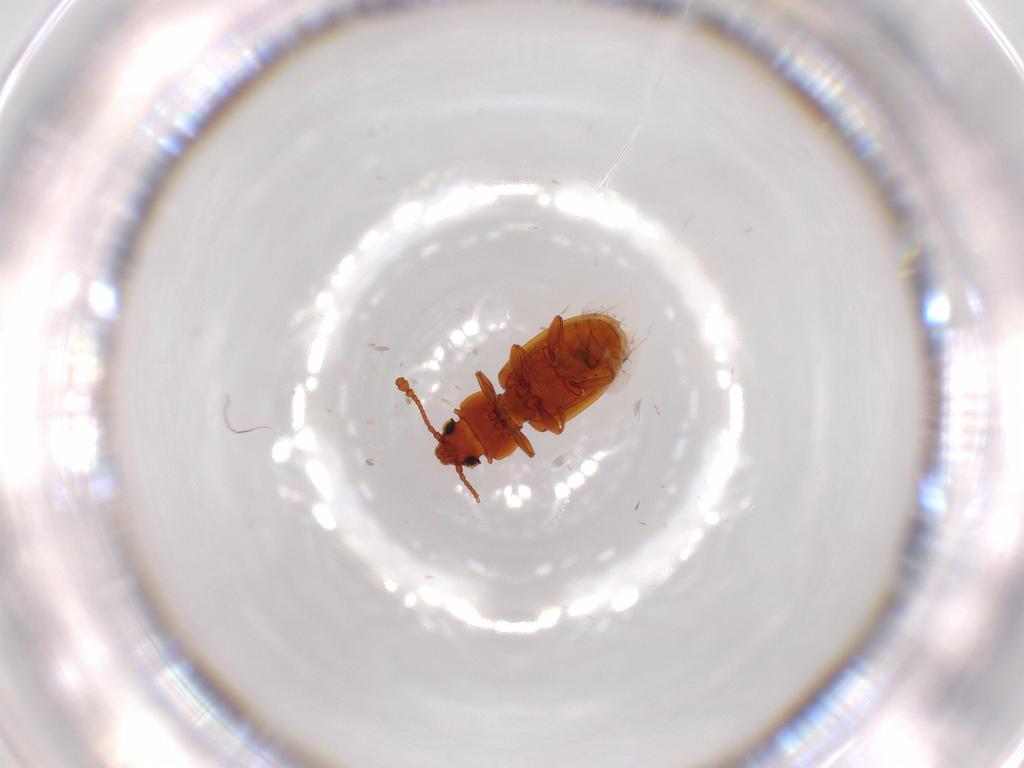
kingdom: Animalia
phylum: Arthropoda
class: Insecta
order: Coleoptera
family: Silvanidae
